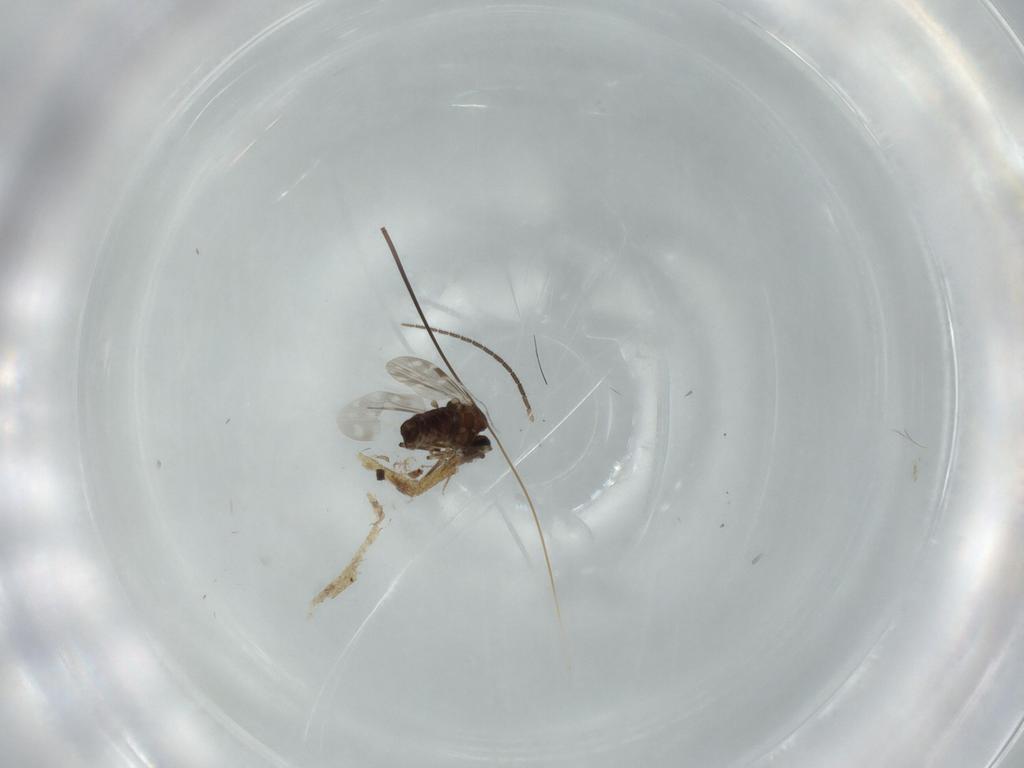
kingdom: Animalia
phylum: Arthropoda
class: Insecta
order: Diptera
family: Ceratopogonidae
